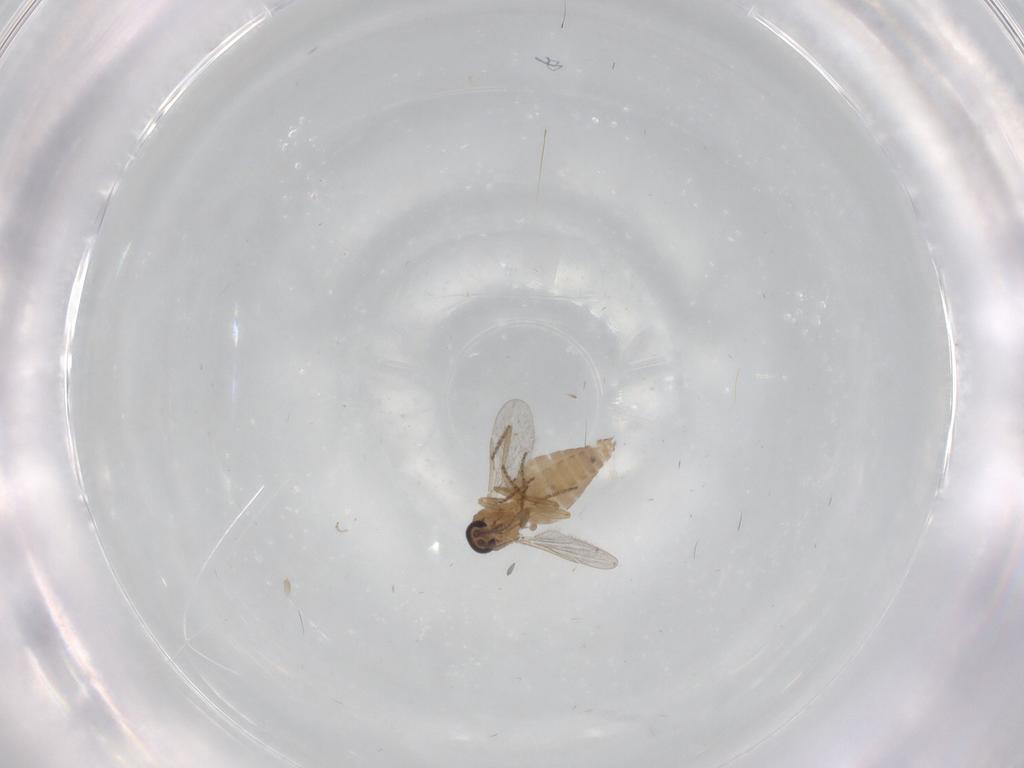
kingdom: Animalia
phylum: Arthropoda
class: Insecta
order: Diptera
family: Ceratopogonidae
